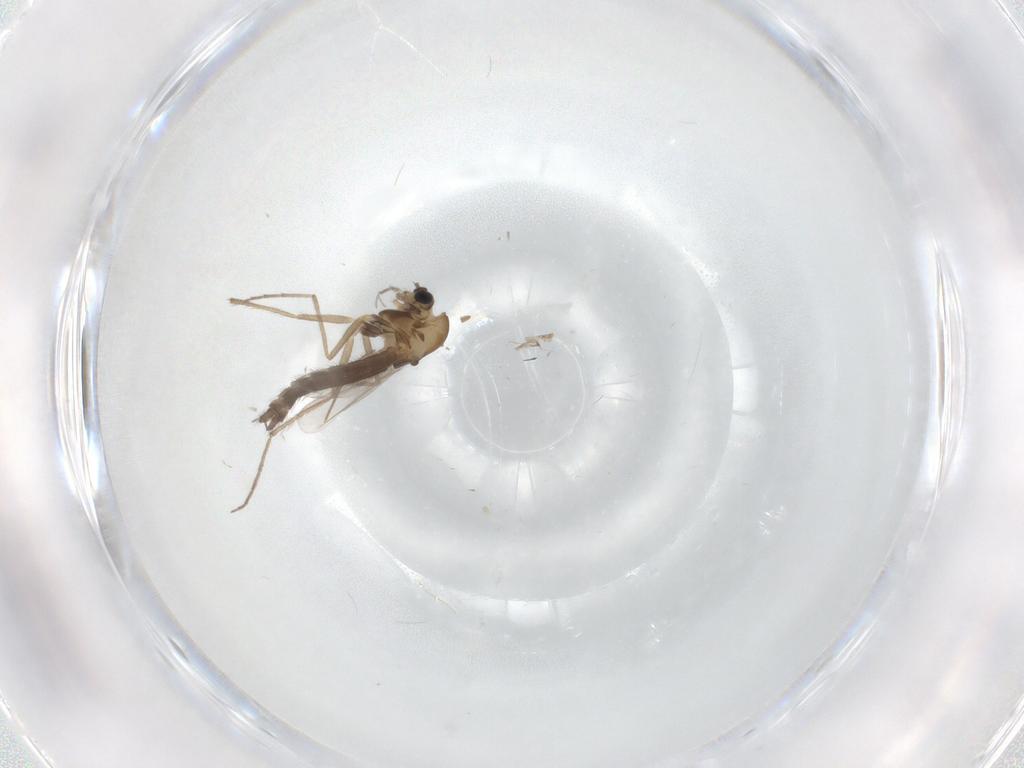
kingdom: Animalia
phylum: Arthropoda
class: Insecta
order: Diptera
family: Chironomidae
